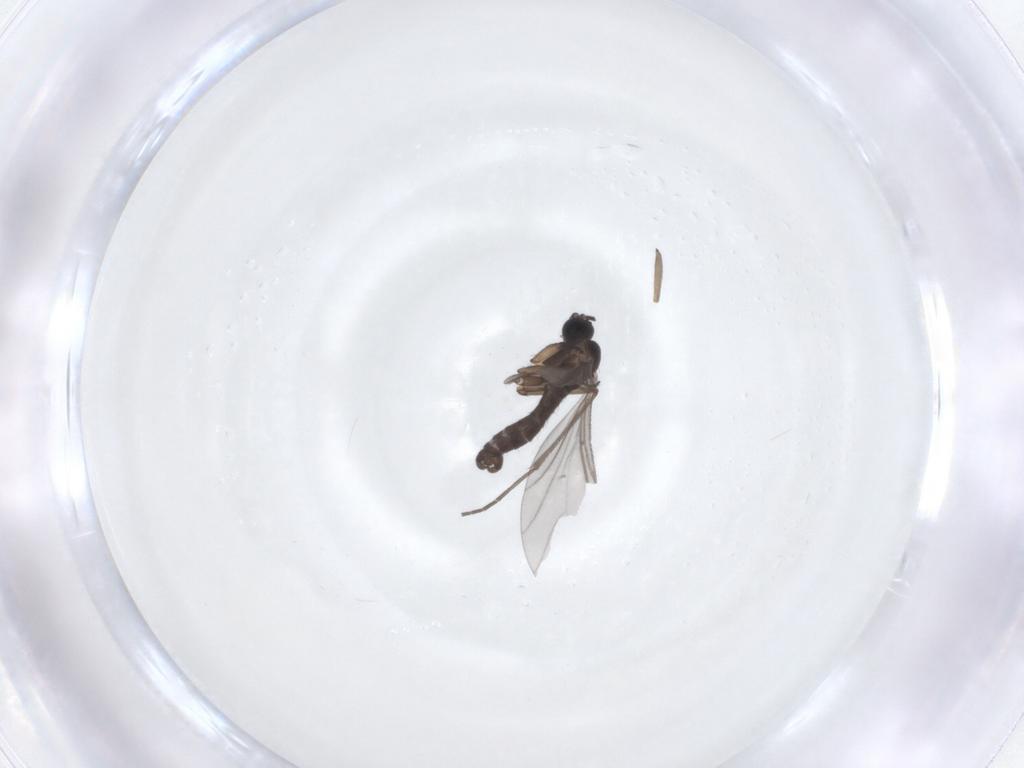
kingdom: Animalia
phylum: Arthropoda
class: Insecta
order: Diptera
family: Sciaridae
